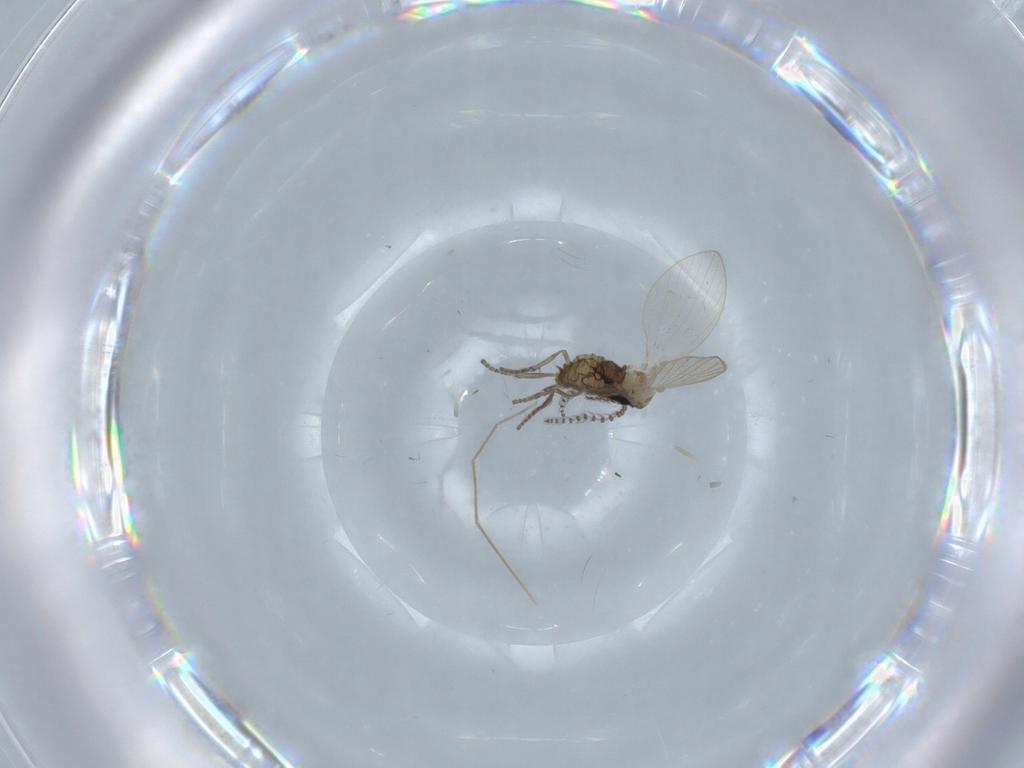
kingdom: Animalia
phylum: Arthropoda
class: Insecta
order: Diptera
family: Psychodidae
